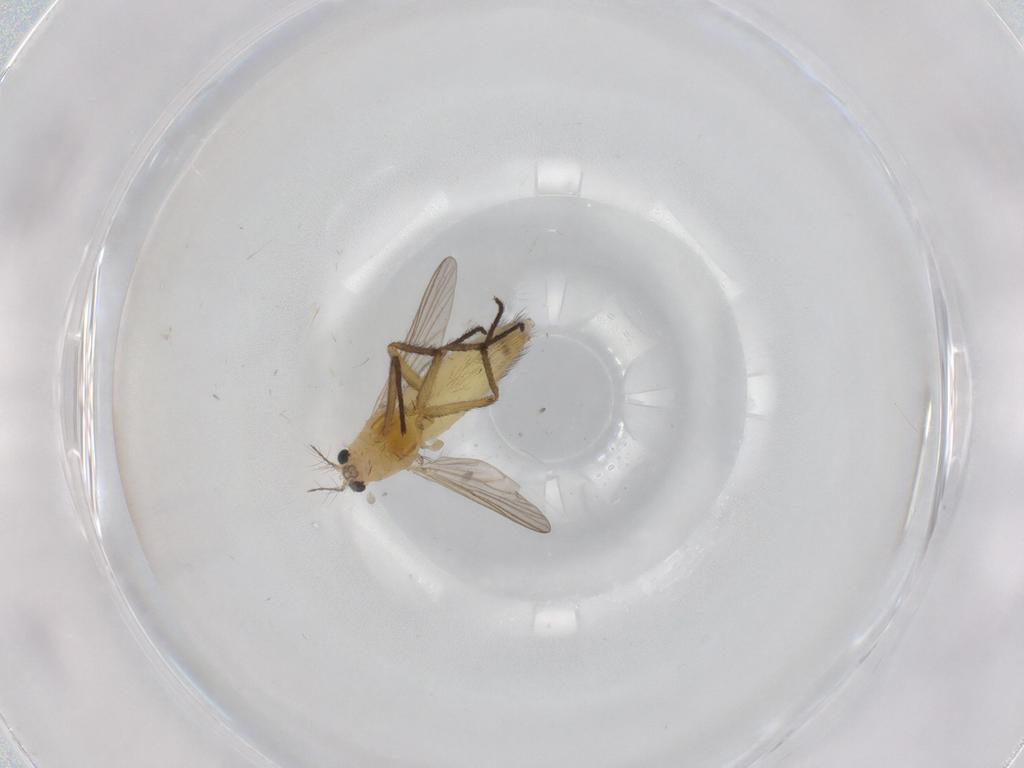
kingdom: Animalia
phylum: Arthropoda
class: Insecta
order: Diptera
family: Chironomidae
